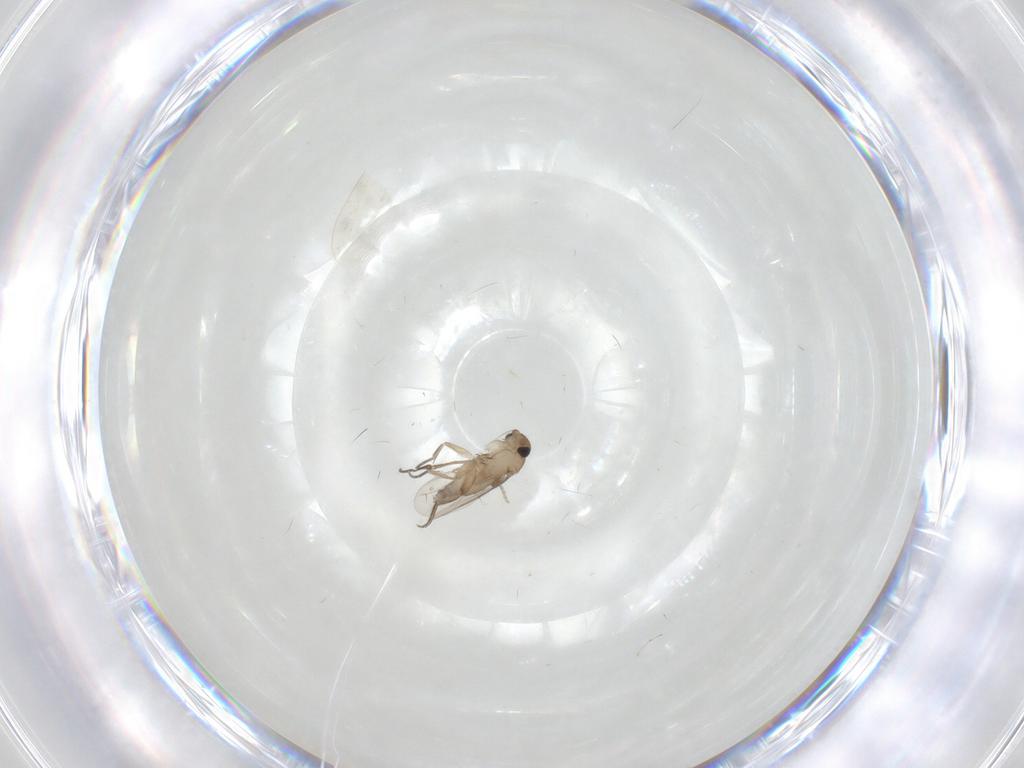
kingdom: Animalia
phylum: Arthropoda
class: Insecta
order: Diptera
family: Phoridae
